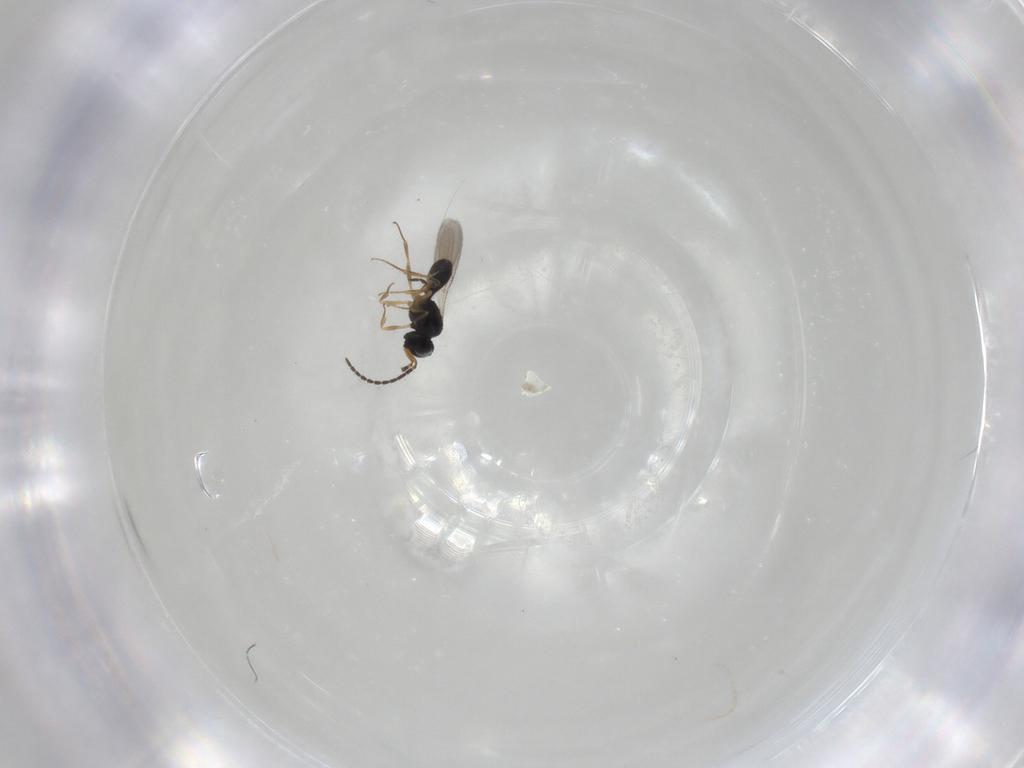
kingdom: Animalia
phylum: Arthropoda
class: Insecta
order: Hymenoptera
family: Scelionidae
